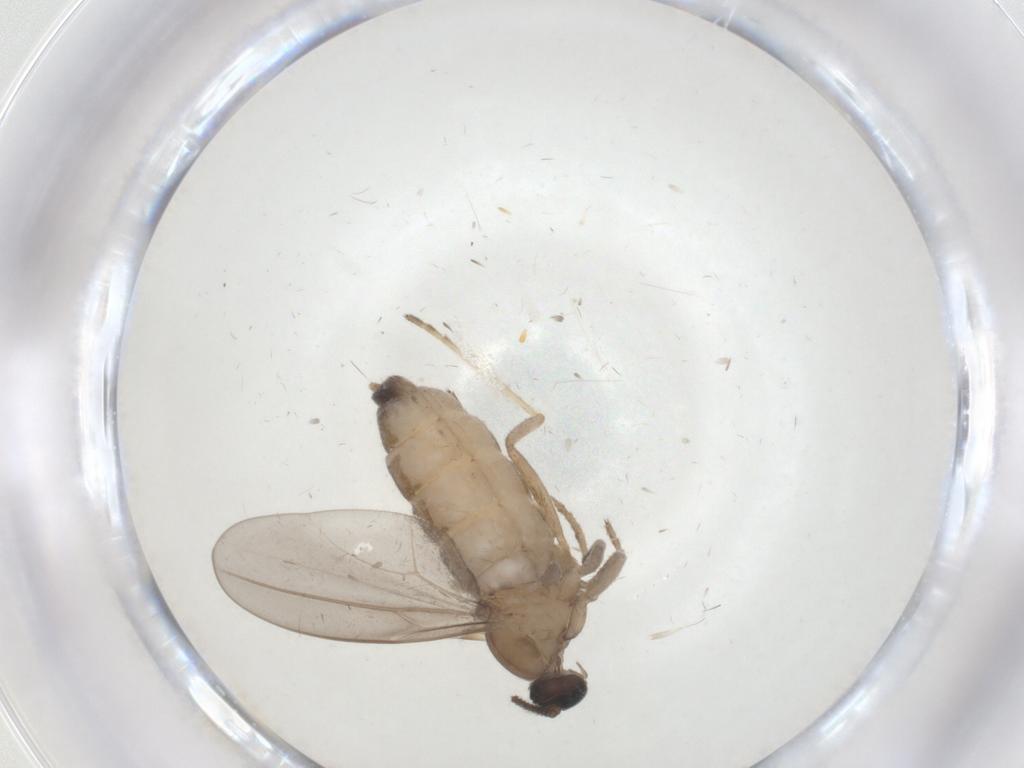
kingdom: Animalia
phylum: Arthropoda
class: Insecta
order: Diptera
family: Cecidomyiidae
